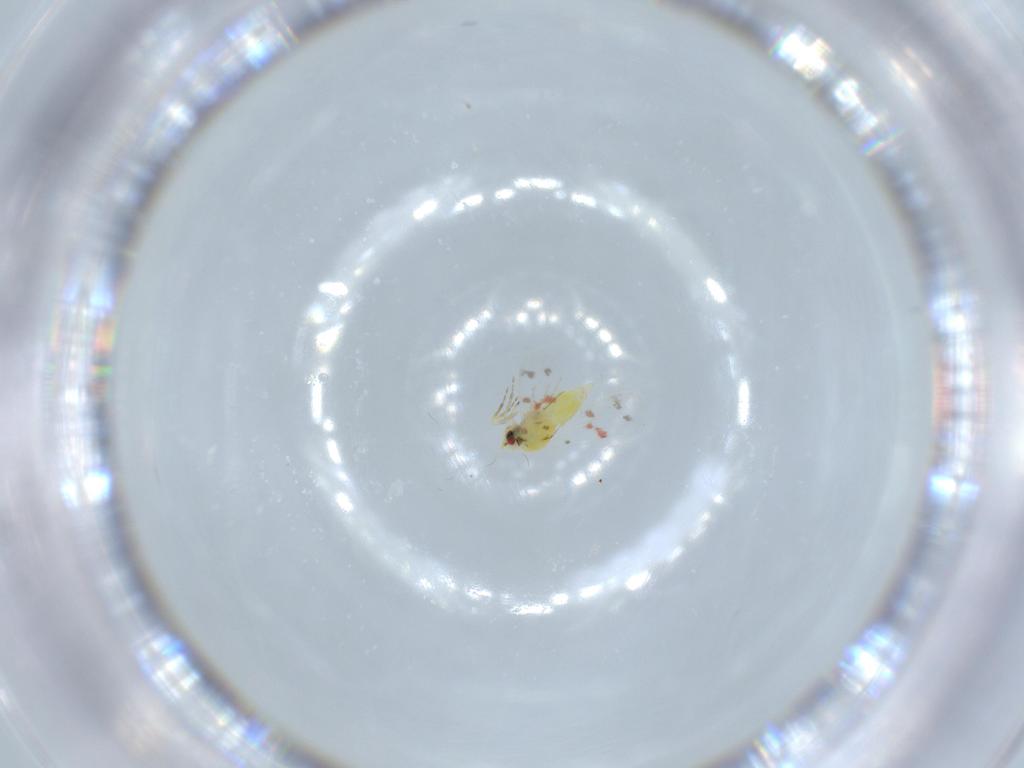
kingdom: Animalia
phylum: Arthropoda
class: Insecta
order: Hemiptera
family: Aleyrodidae
